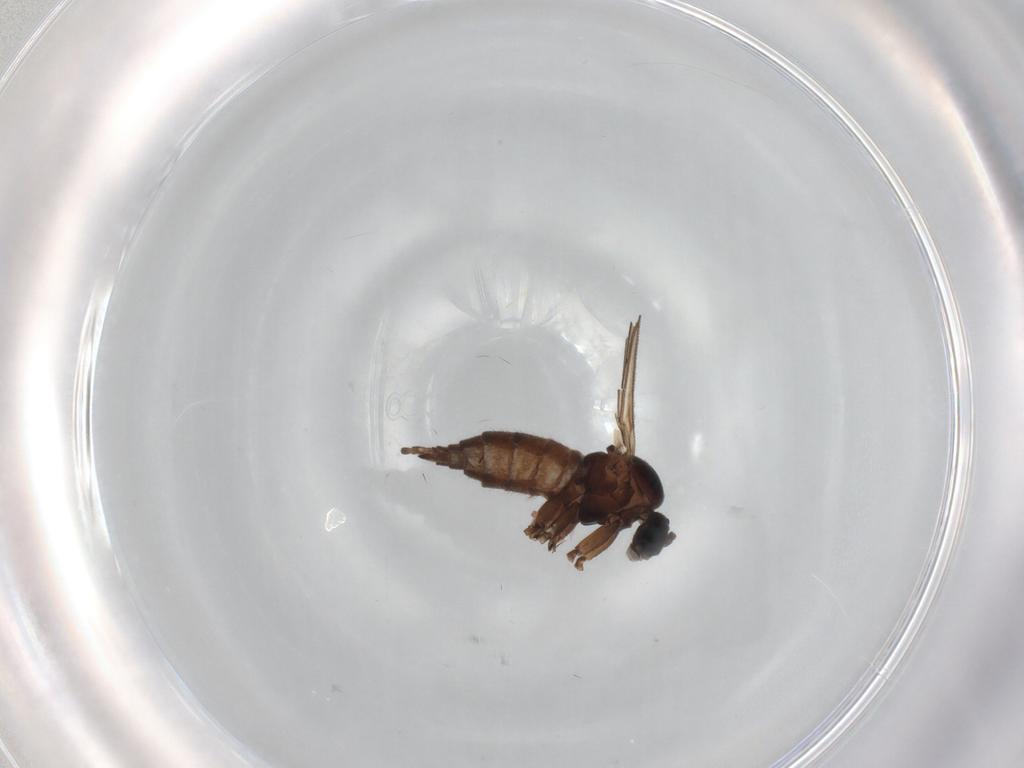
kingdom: Animalia
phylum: Arthropoda
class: Insecta
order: Diptera
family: Sciaridae
